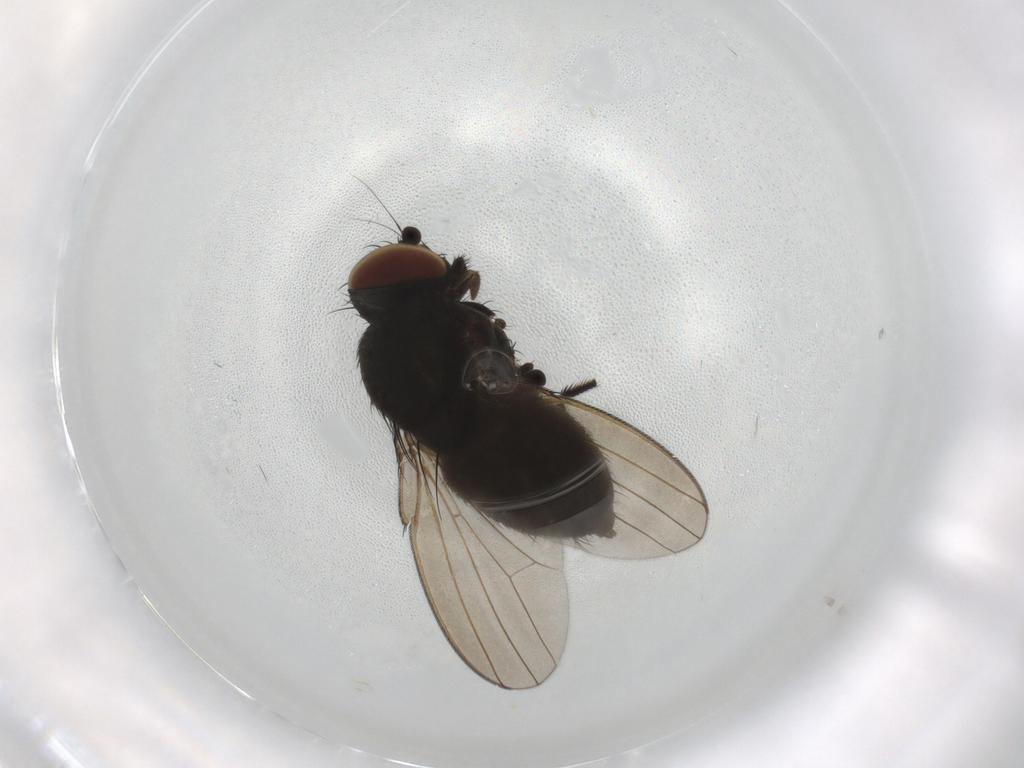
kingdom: Animalia
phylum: Arthropoda
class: Insecta
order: Diptera
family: Milichiidae
